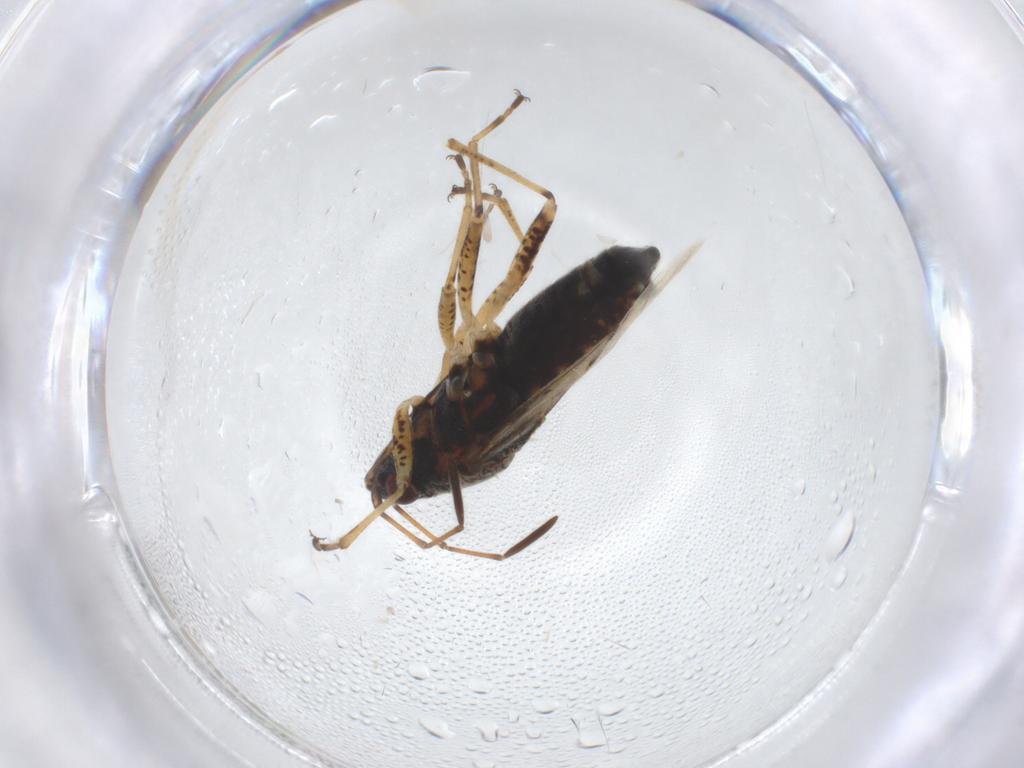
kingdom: Animalia
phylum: Arthropoda
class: Insecta
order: Hemiptera
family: Lygaeidae
